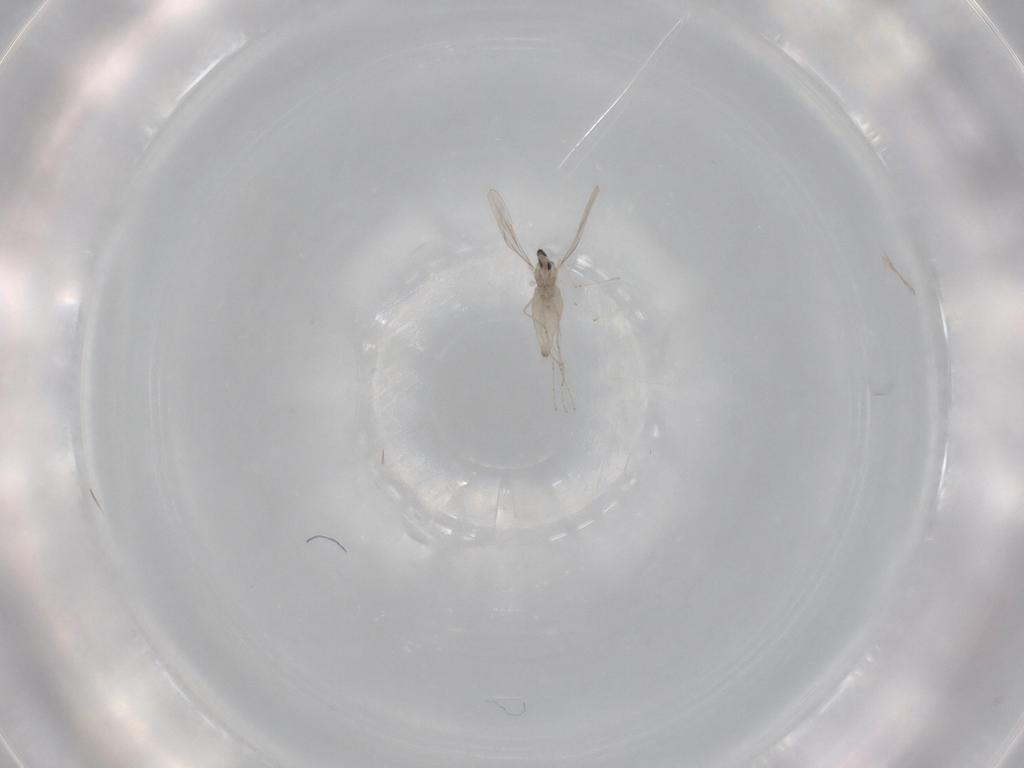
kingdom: Animalia
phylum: Arthropoda
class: Insecta
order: Diptera
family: Cecidomyiidae
